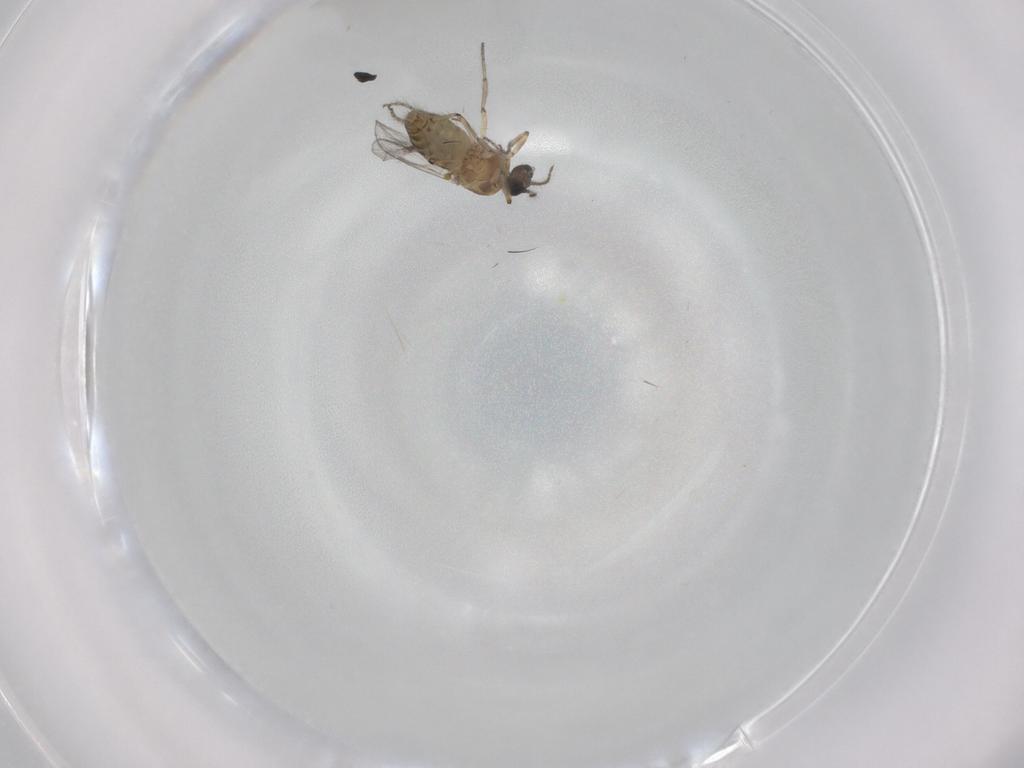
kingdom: Animalia
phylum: Arthropoda
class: Insecta
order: Diptera
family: Ceratopogonidae
